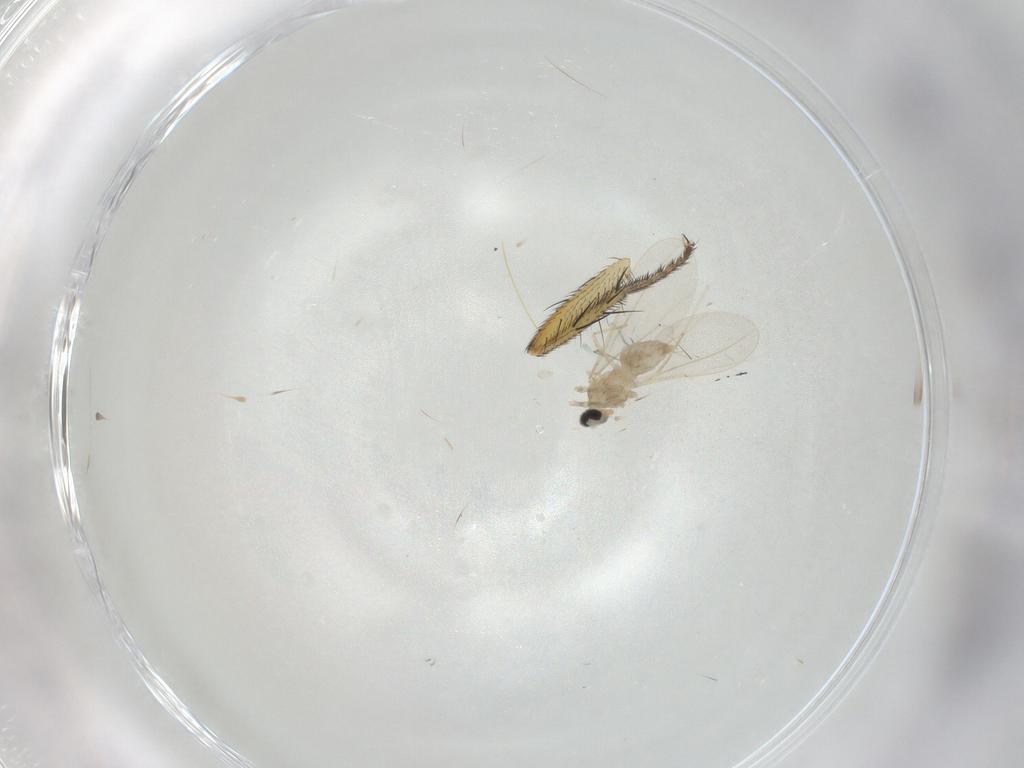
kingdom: Animalia
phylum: Arthropoda
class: Insecta
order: Diptera
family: Cecidomyiidae
